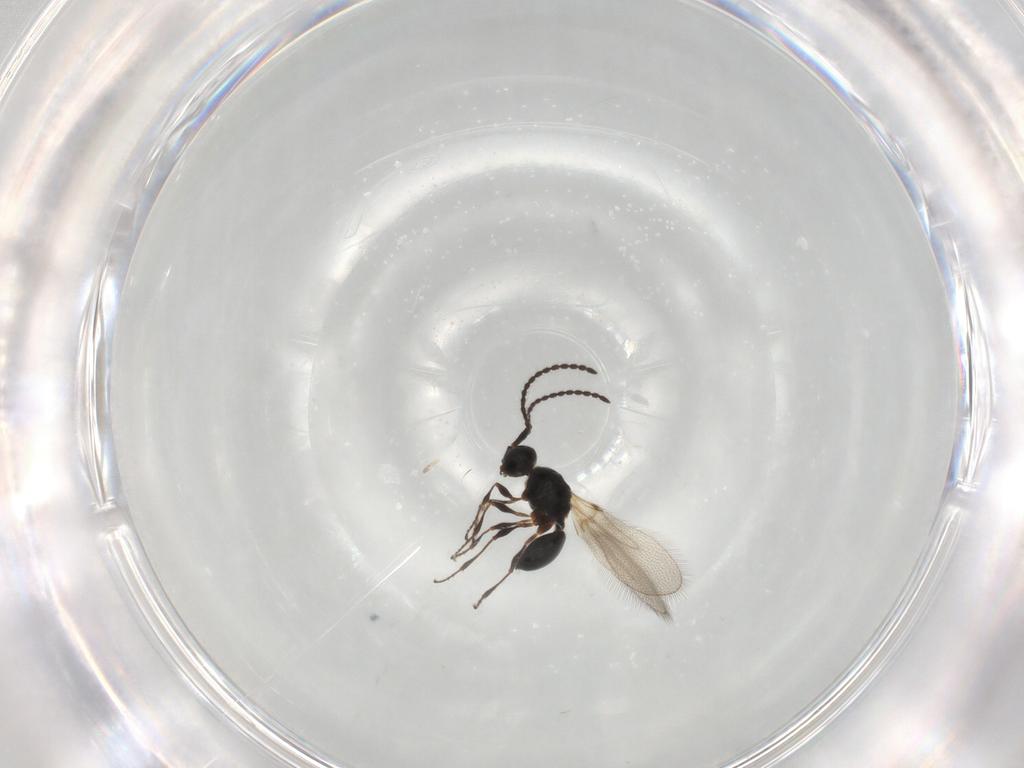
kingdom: Animalia
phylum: Arthropoda
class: Insecta
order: Hymenoptera
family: Diapriidae
